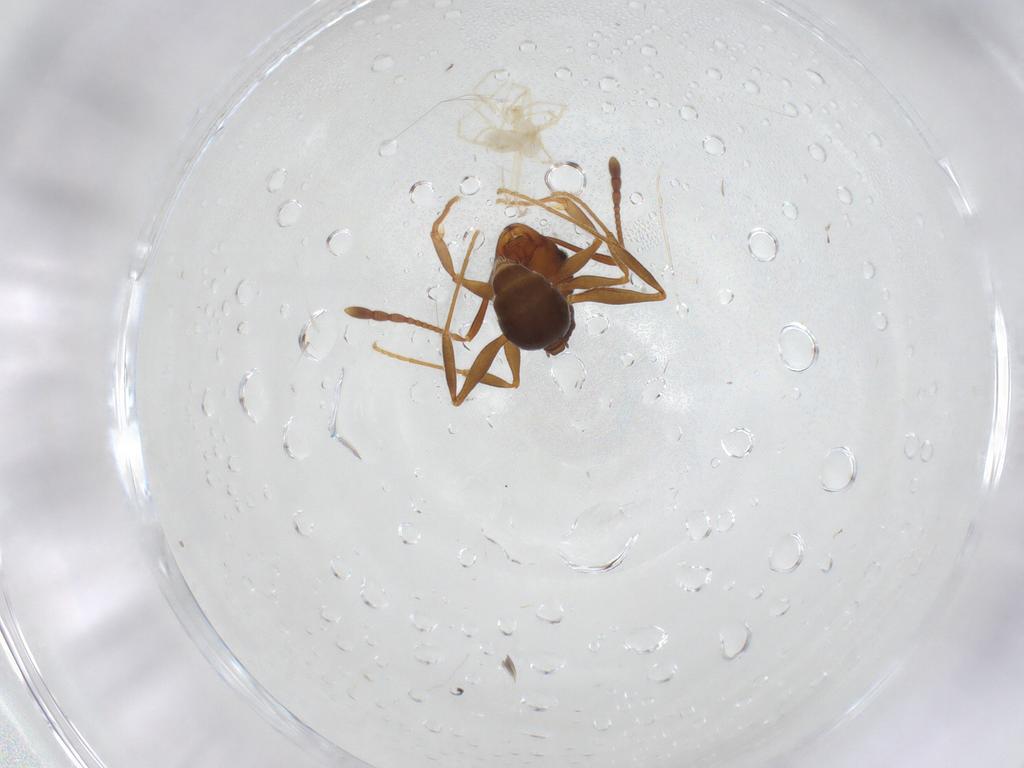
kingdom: Animalia
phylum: Arthropoda
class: Arachnida
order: Trombidiformes
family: Erythraeidae
